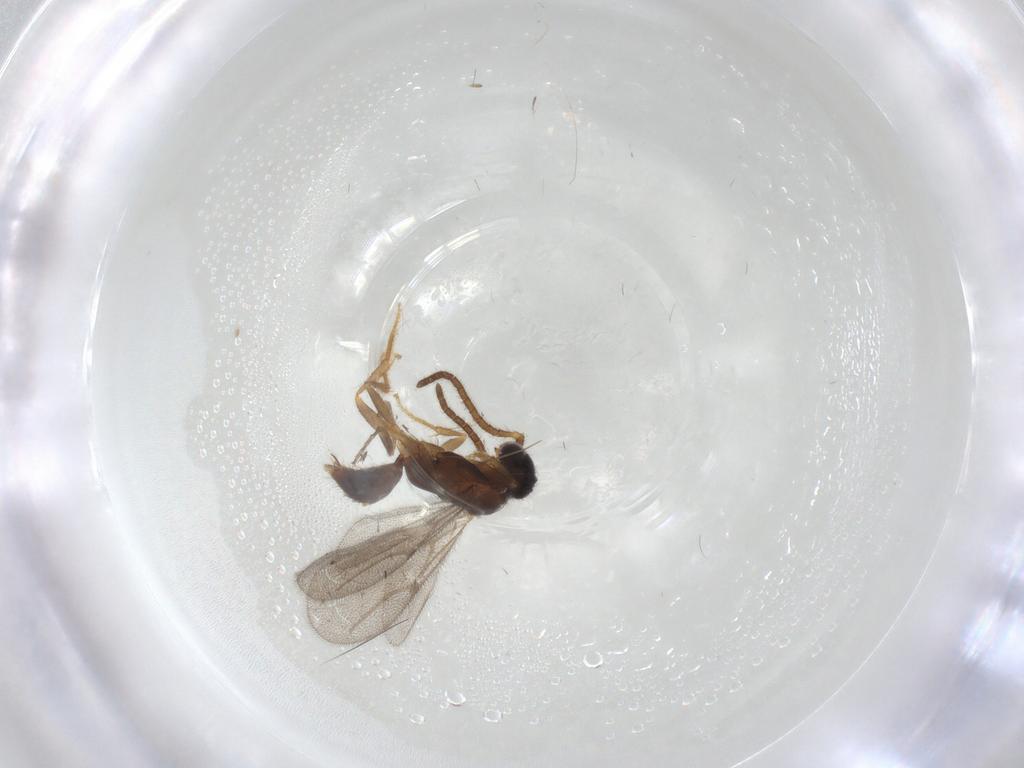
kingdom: Animalia
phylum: Arthropoda
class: Insecta
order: Hymenoptera
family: Bethylidae
